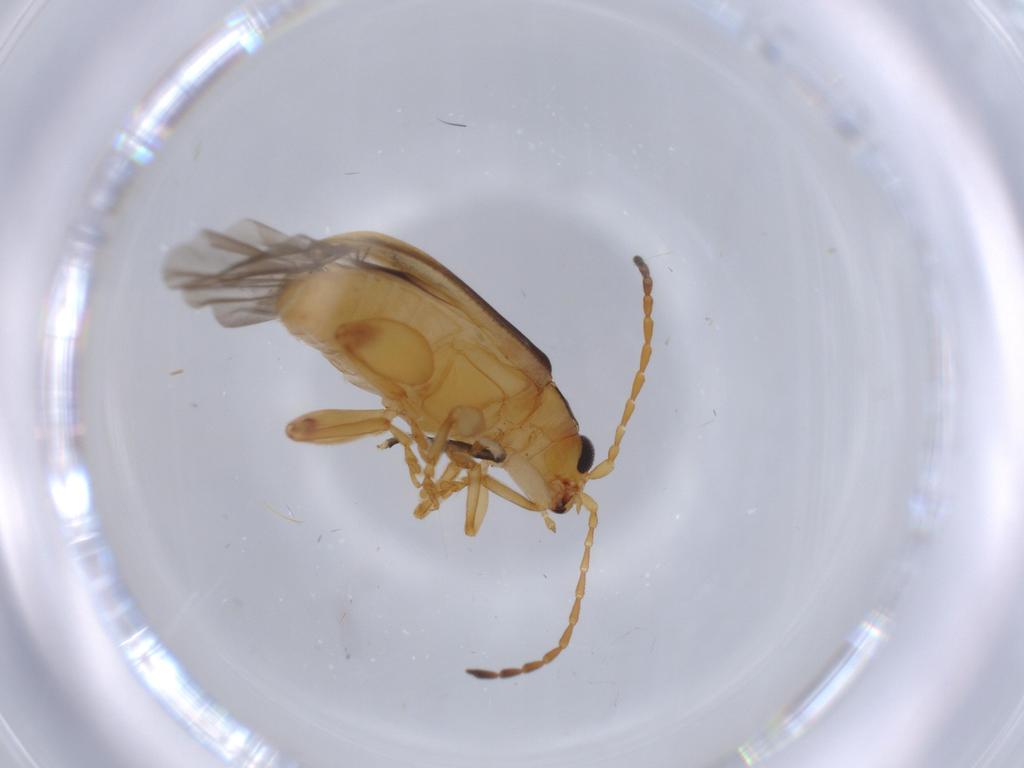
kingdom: Animalia
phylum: Arthropoda
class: Insecta
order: Coleoptera
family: Chrysomelidae
